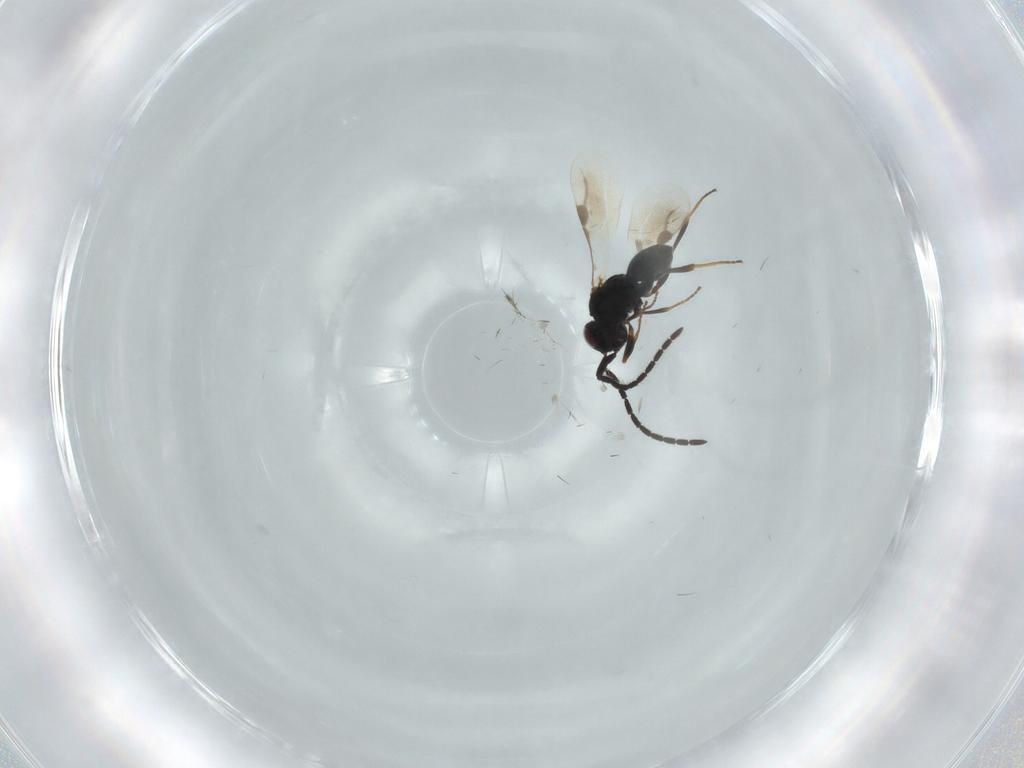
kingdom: Animalia
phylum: Arthropoda
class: Insecta
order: Hymenoptera
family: Megaspilidae
